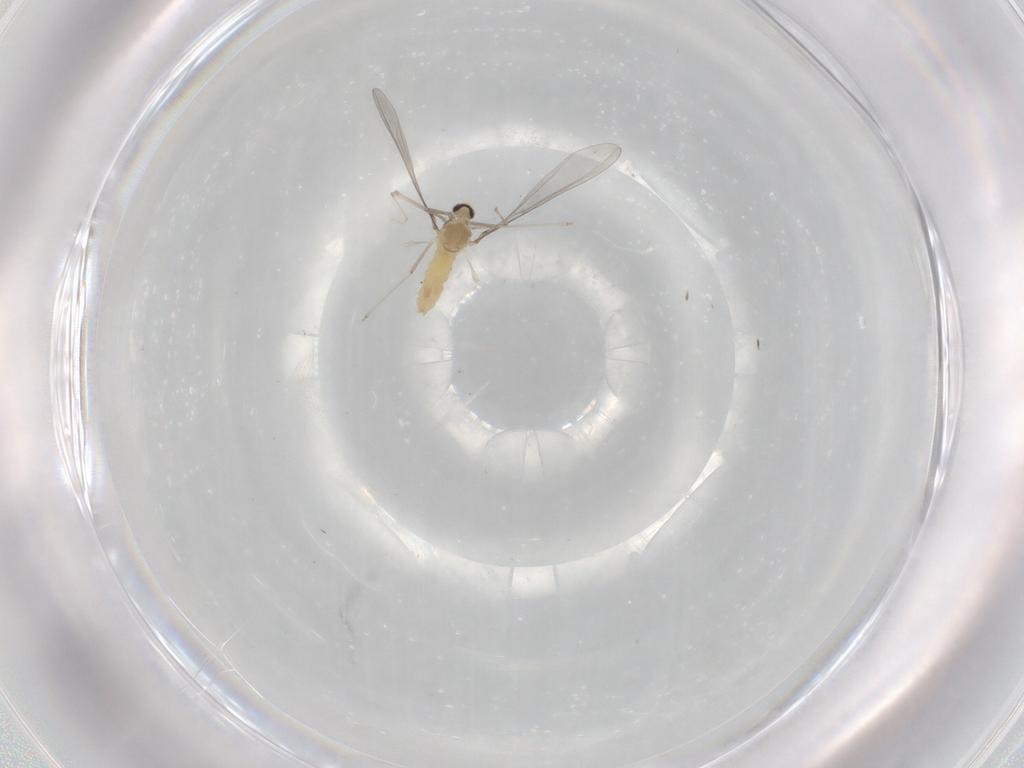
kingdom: Animalia
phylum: Arthropoda
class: Insecta
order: Diptera
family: Cecidomyiidae
